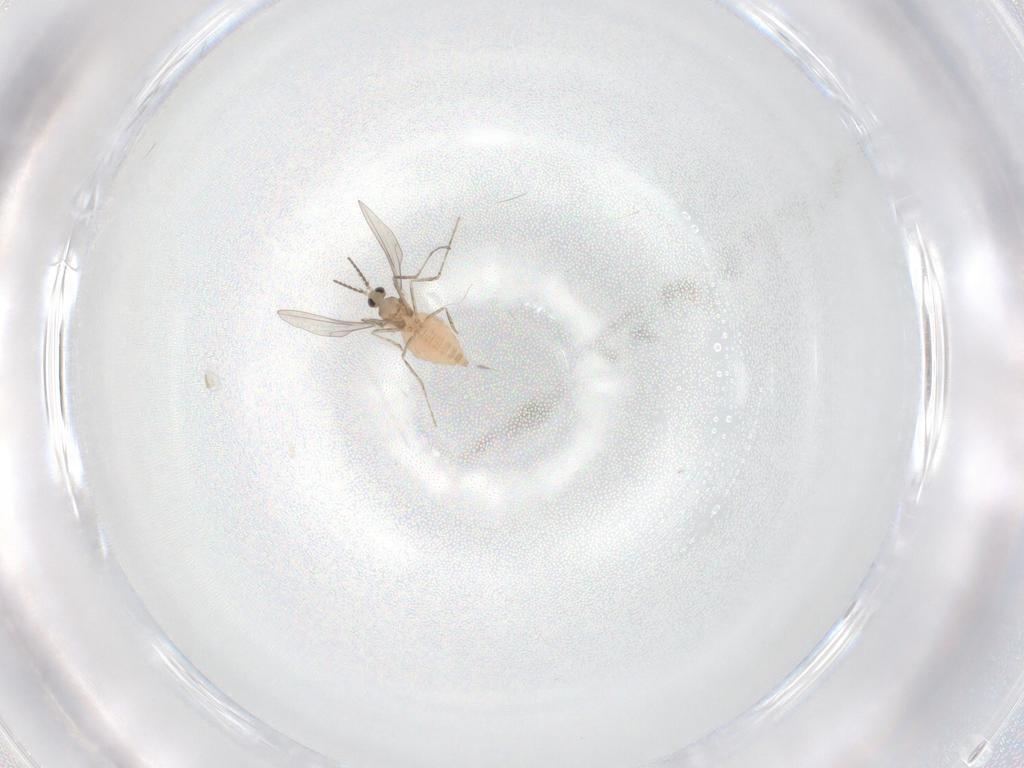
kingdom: Animalia
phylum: Arthropoda
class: Insecta
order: Diptera
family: Cecidomyiidae
